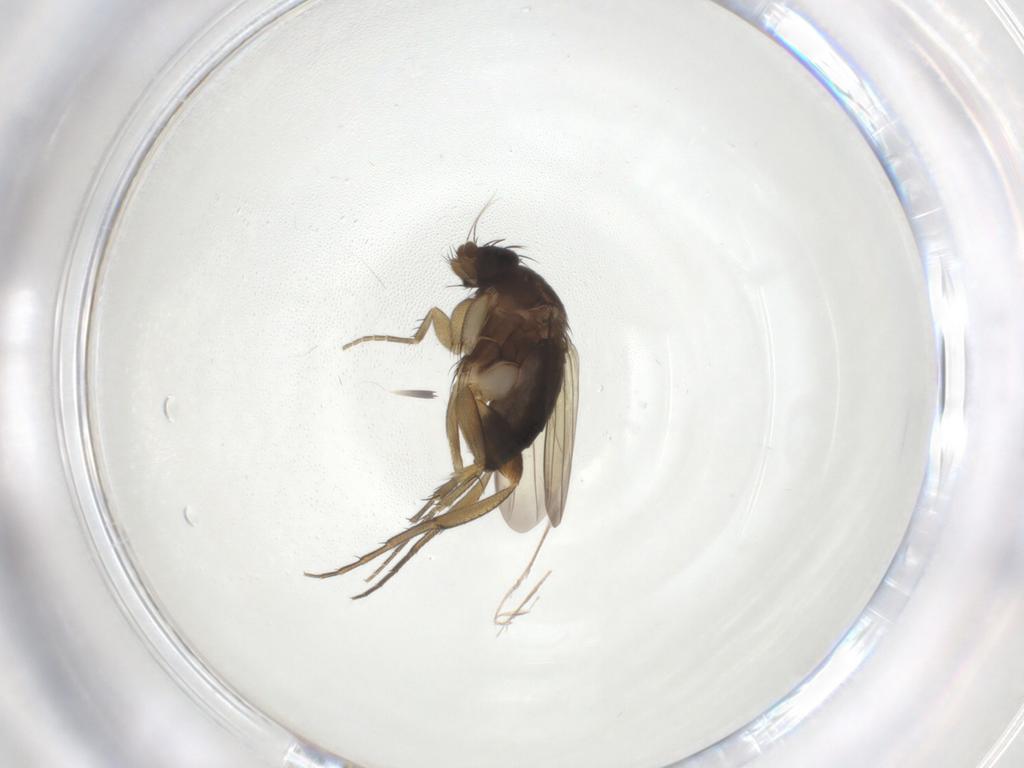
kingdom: Animalia
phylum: Arthropoda
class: Insecta
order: Diptera
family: Phoridae
